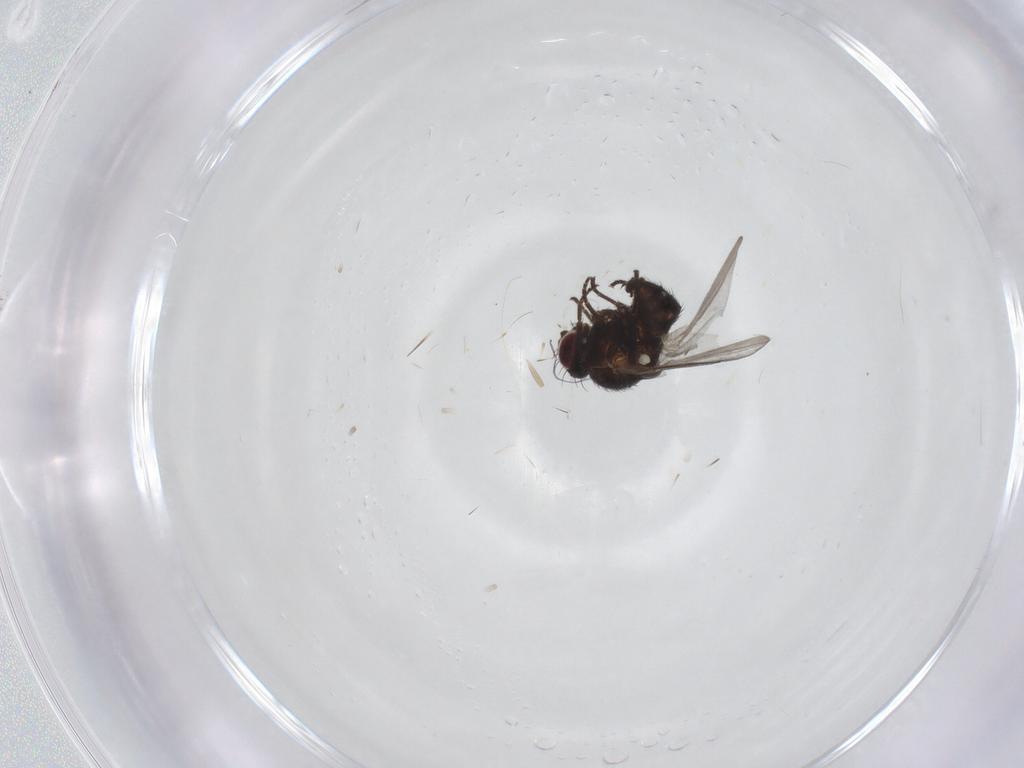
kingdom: Animalia
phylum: Arthropoda
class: Insecta
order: Diptera
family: Agromyzidae
